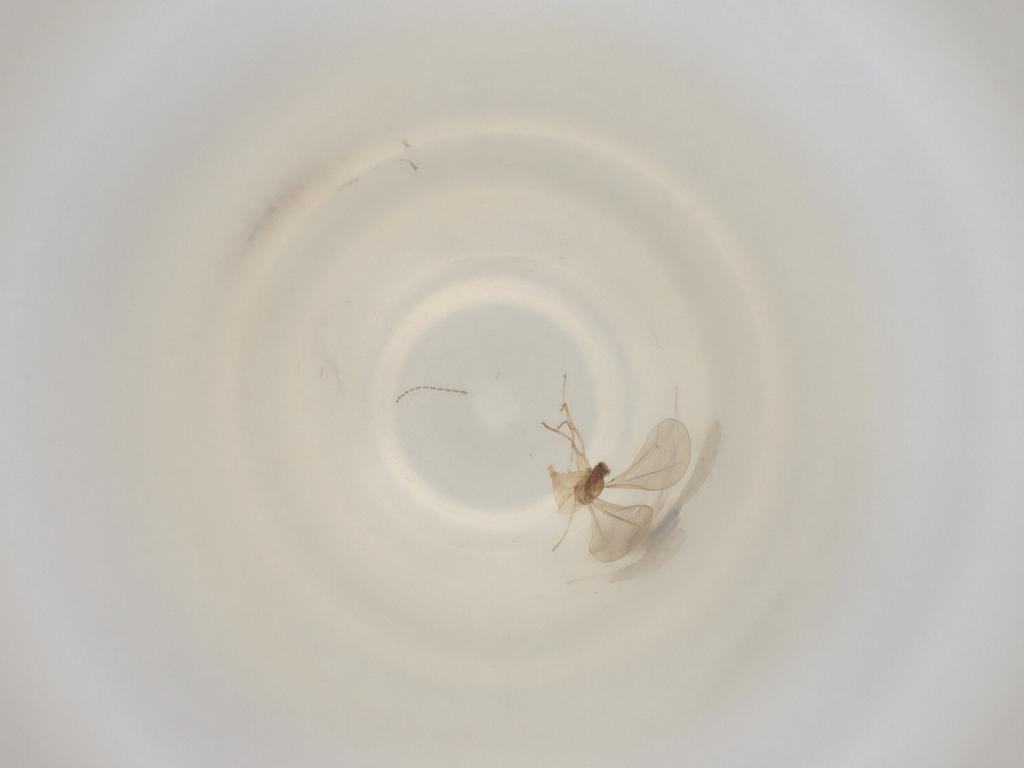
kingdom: Animalia
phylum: Arthropoda
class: Insecta
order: Diptera
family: Cecidomyiidae
